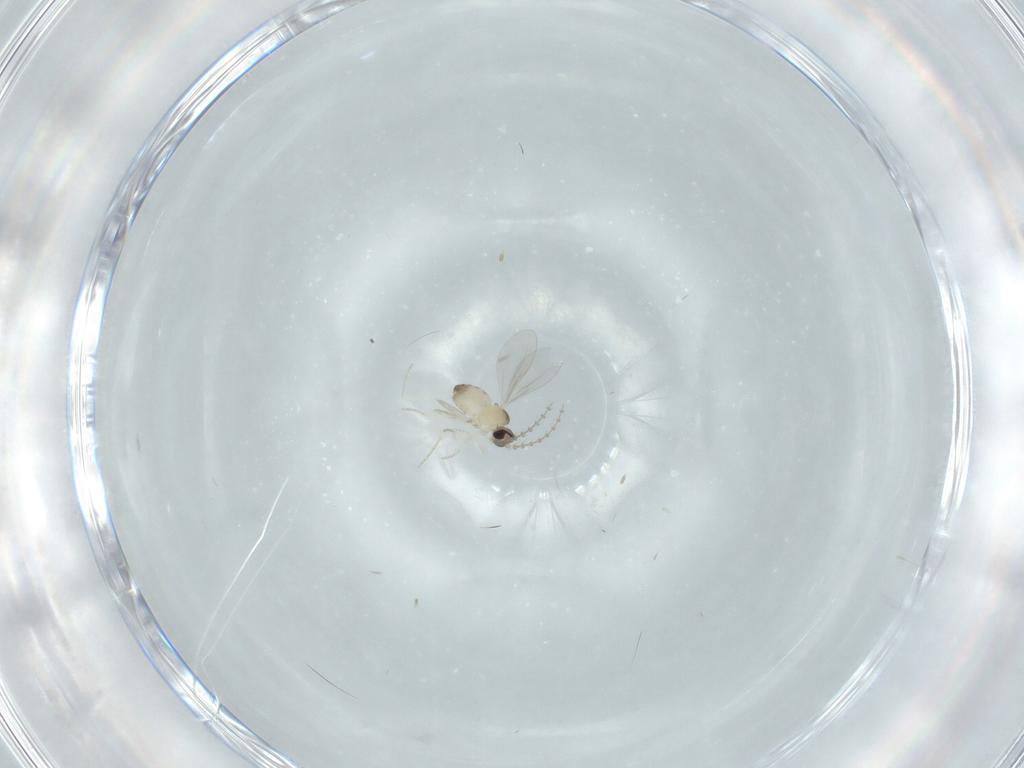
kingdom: Animalia
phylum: Arthropoda
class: Insecta
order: Diptera
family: Cecidomyiidae
